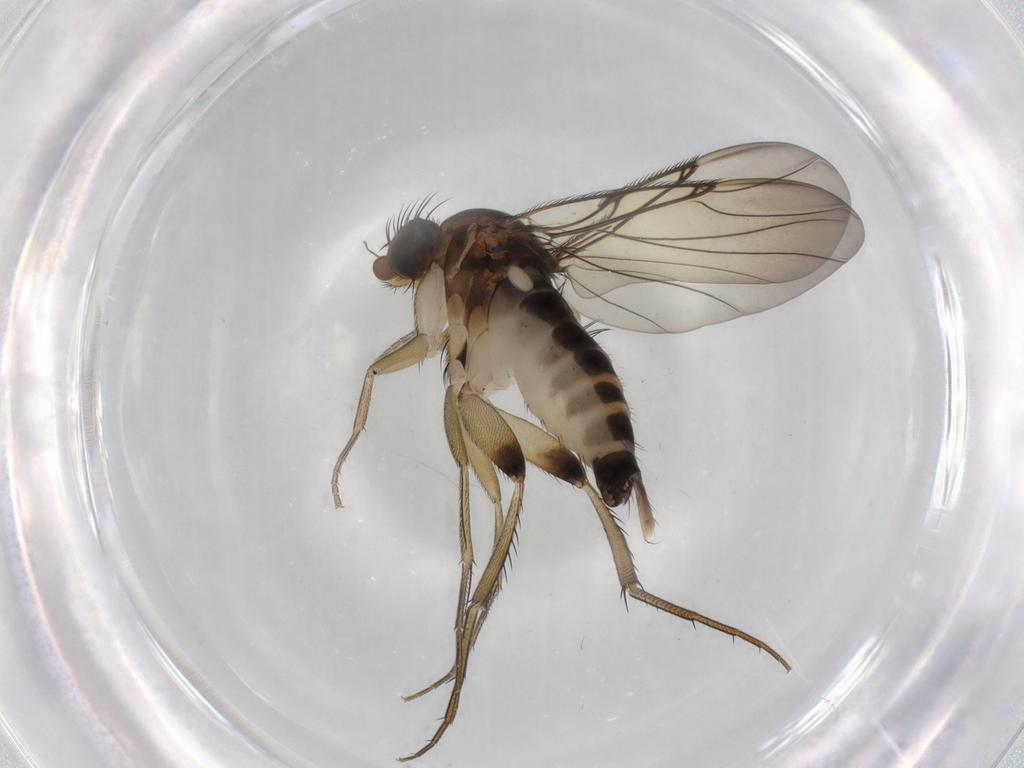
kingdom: Animalia
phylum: Arthropoda
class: Insecta
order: Diptera
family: Phoridae
